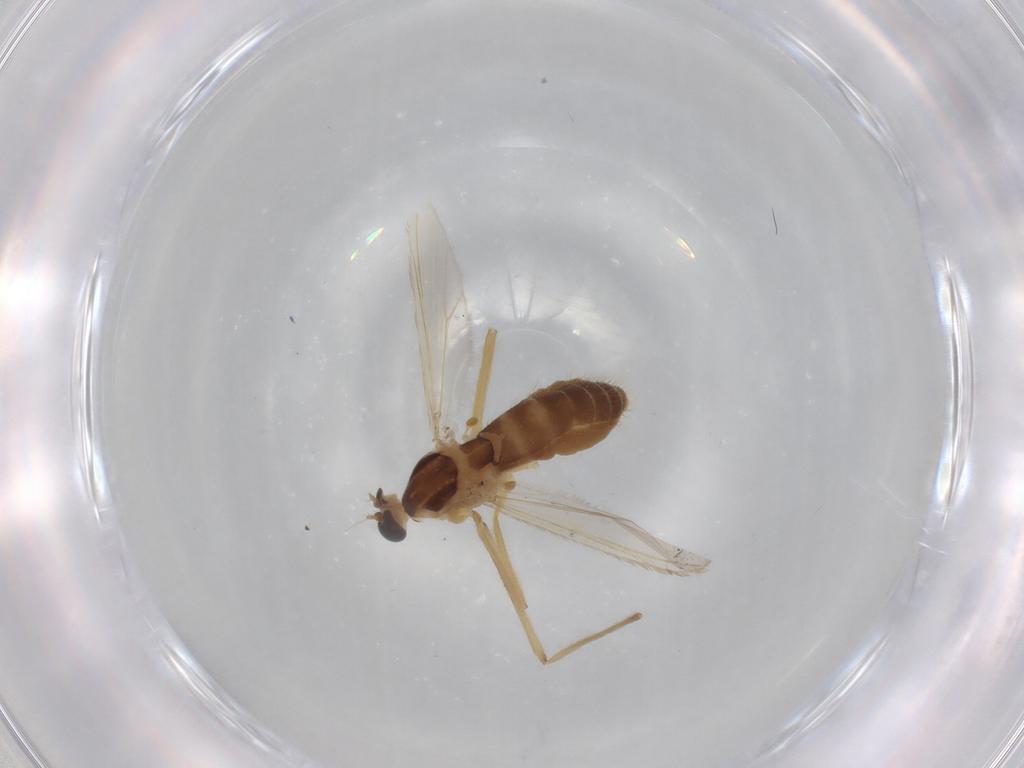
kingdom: Animalia
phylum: Arthropoda
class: Insecta
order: Diptera
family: Chironomidae
